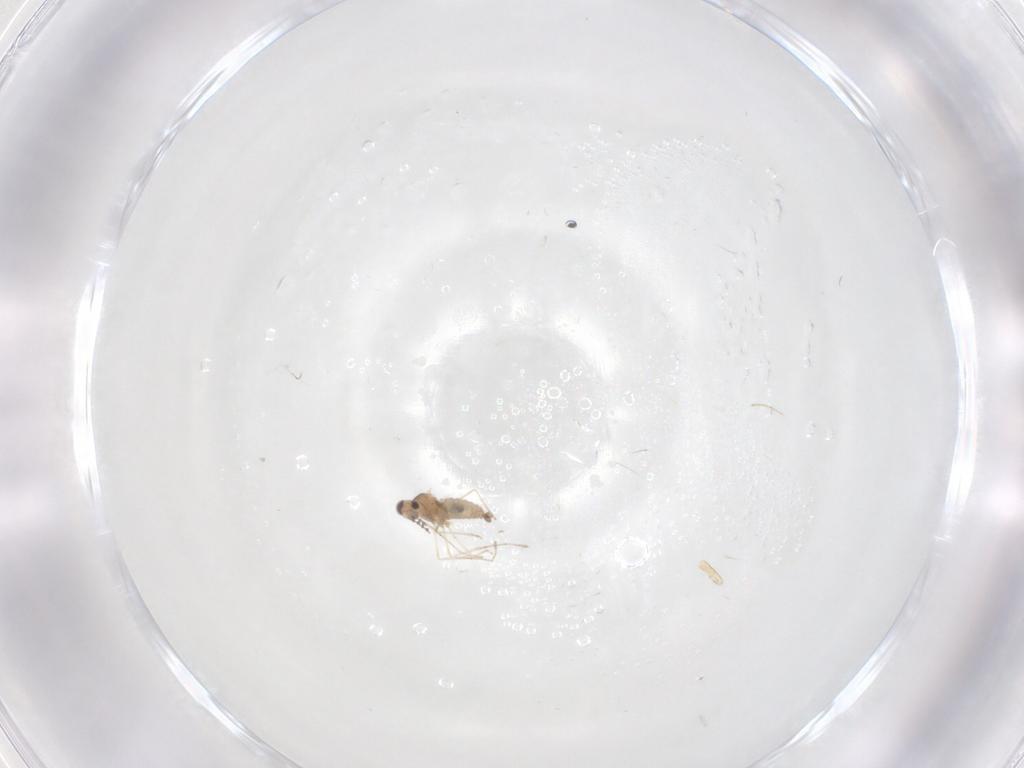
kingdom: Animalia
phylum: Arthropoda
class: Insecta
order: Diptera
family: Cecidomyiidae
